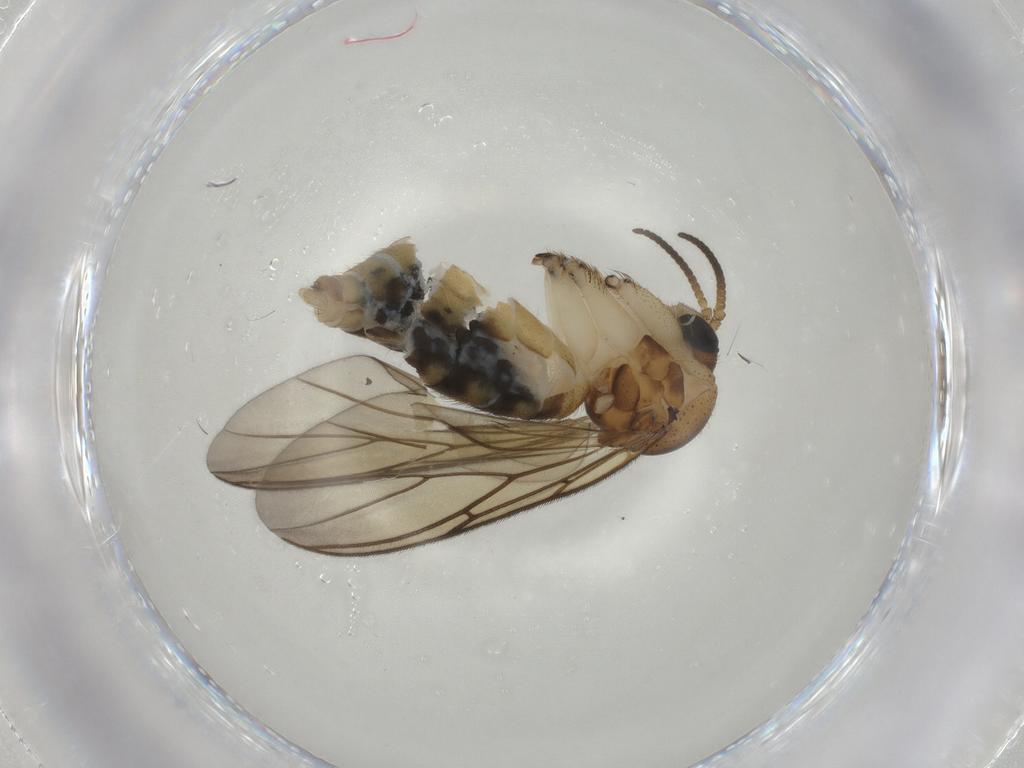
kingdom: Animalia
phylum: Arthropoda
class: Insecta
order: Diptera
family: Mycetophilidae
